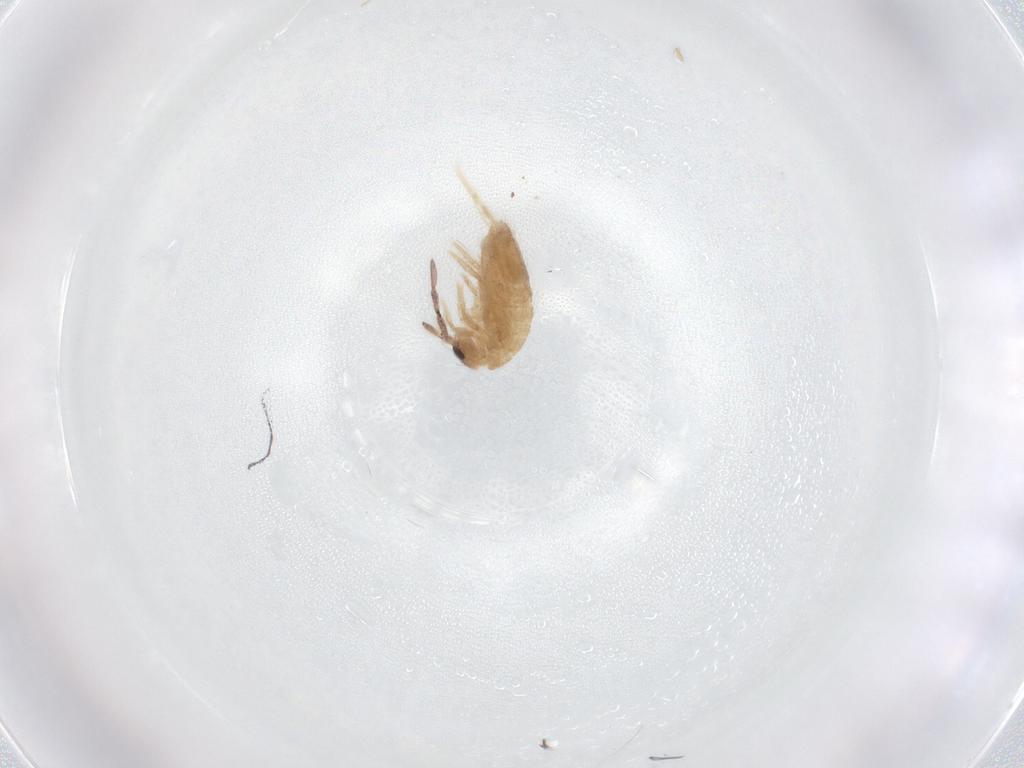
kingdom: Animalia
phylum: Arthropoda
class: Collembola
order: Entomobryomorpha
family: Entomobryidae
